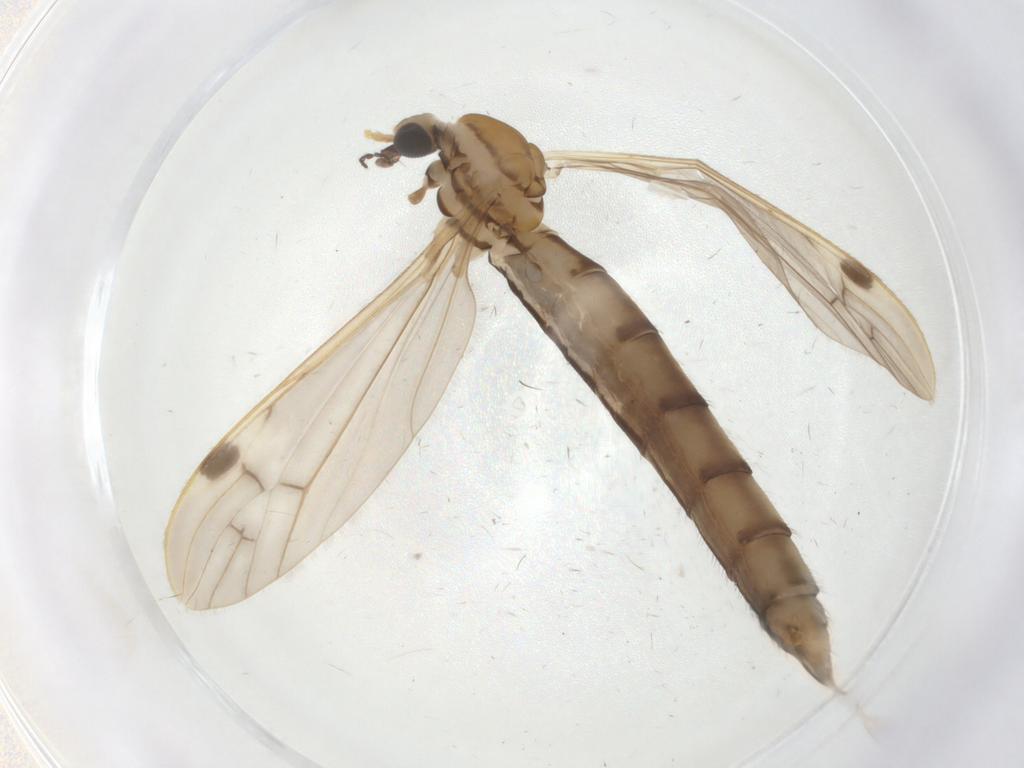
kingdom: Animalia
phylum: Arthropoda
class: Insecta
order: Diptera
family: Limoniidae
